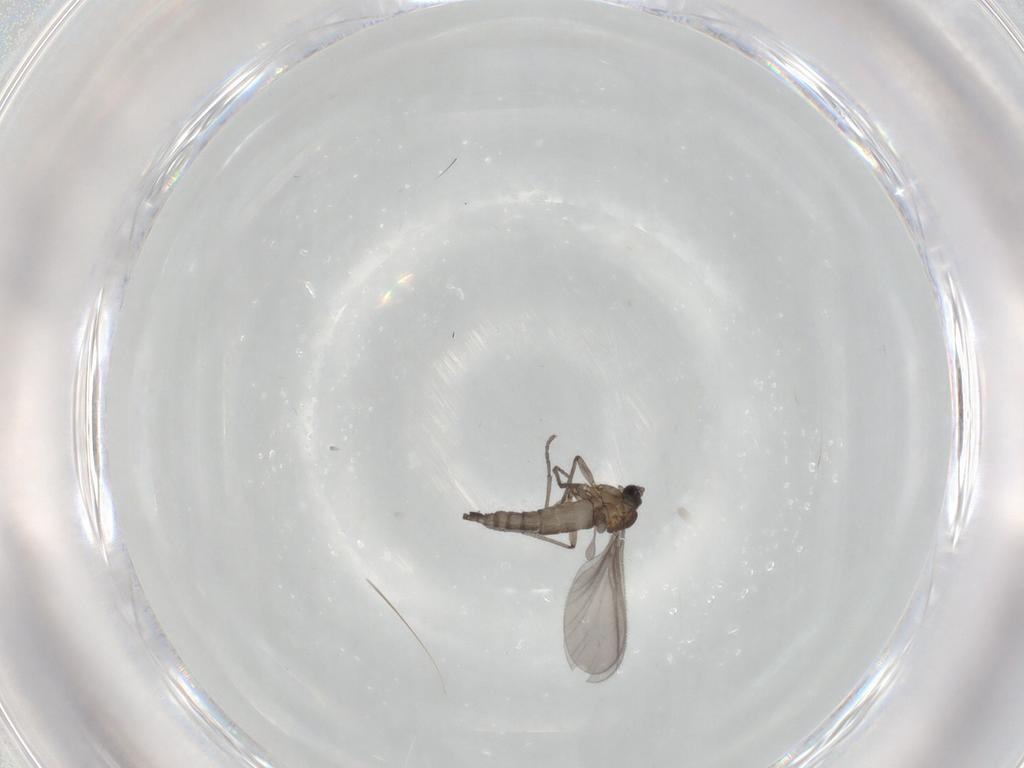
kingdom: Animalia
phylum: Arthropoda
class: Insecta
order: Diptera
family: Sciaridae
